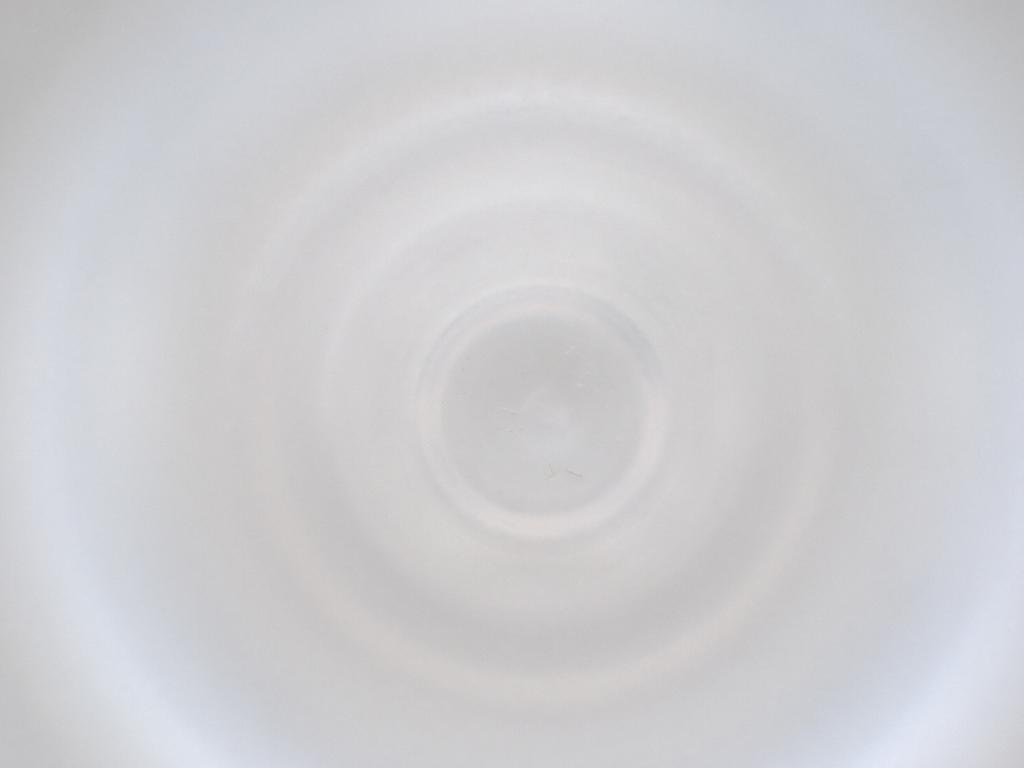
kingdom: Animalia
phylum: Arthropoda
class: Insecta
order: Diptera
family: Cecidomyiidae
